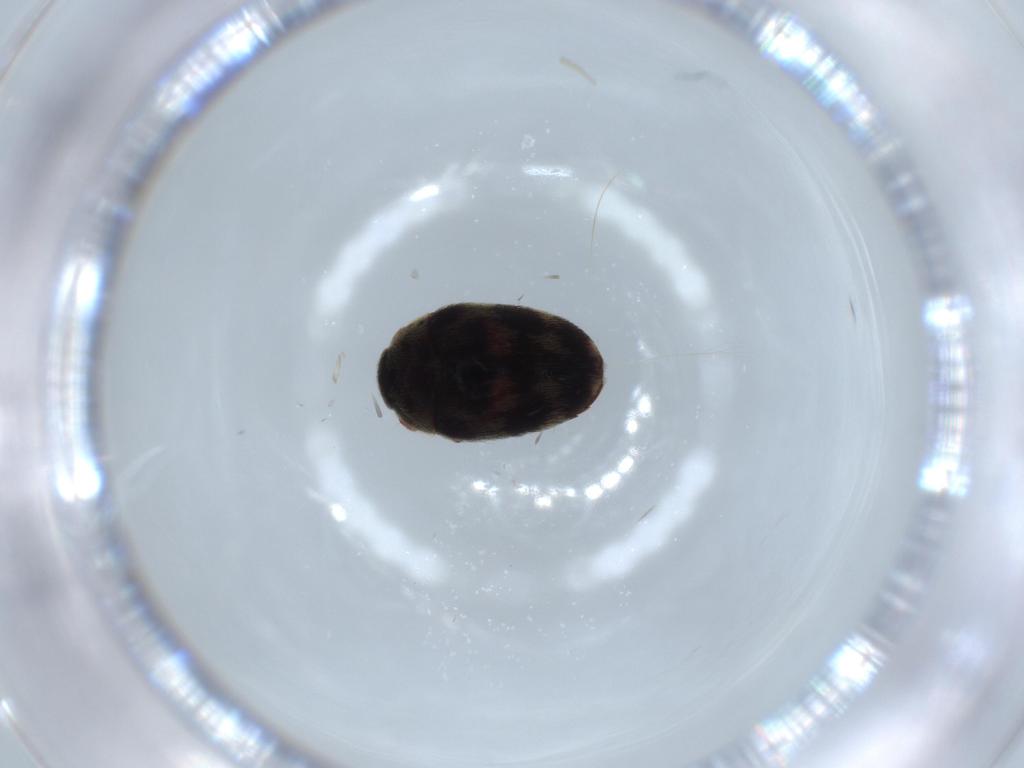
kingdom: Animalia
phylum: Arthropoda
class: Insecta
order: Coleoptera
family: Dermestidae
